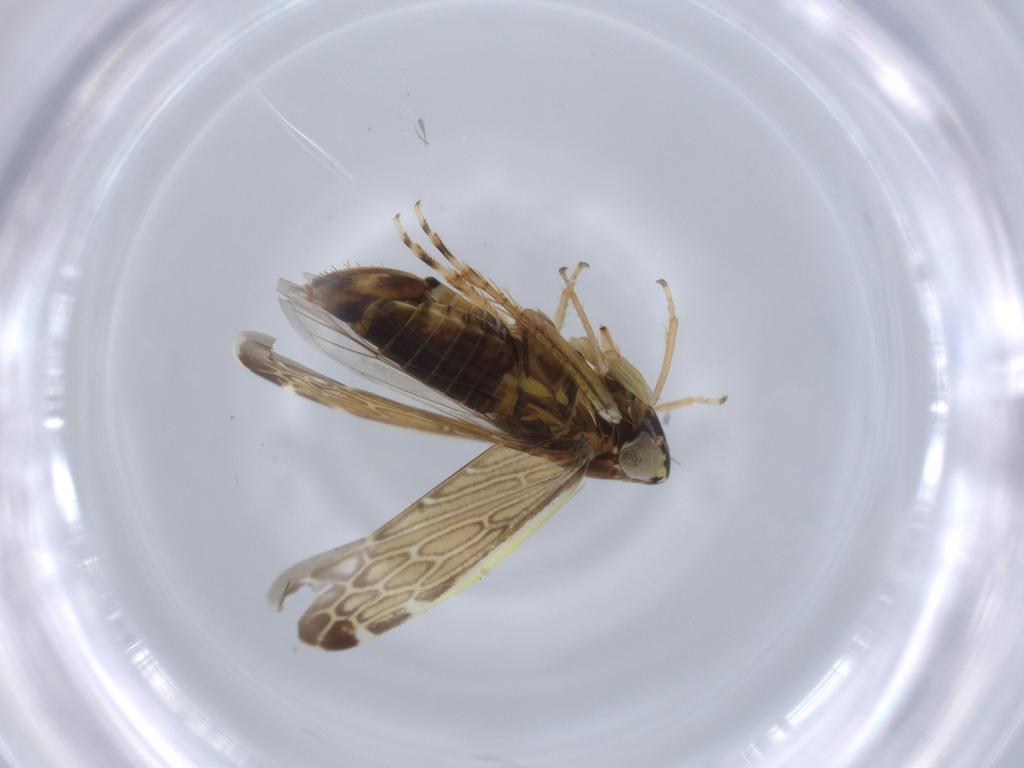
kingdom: Animalia
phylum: Arthropoda
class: Insecta
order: Hemiptera
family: Cicadellidae
